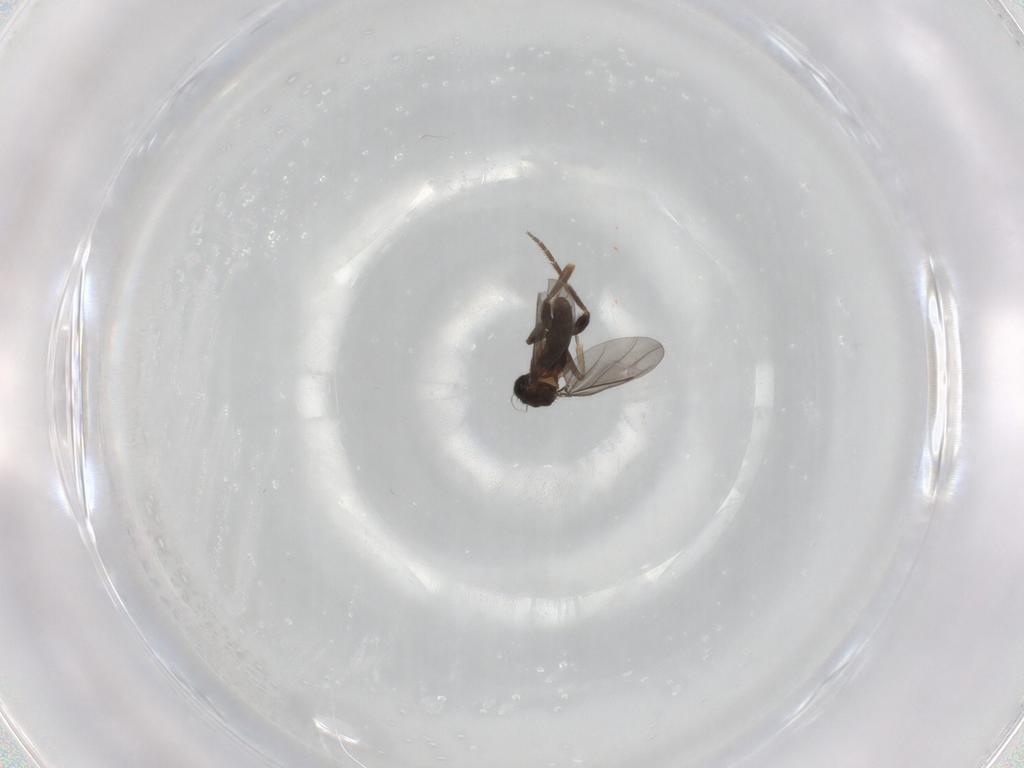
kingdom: Animalia
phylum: Arthropoda
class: Insecta
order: Diptera
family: Phoridae
